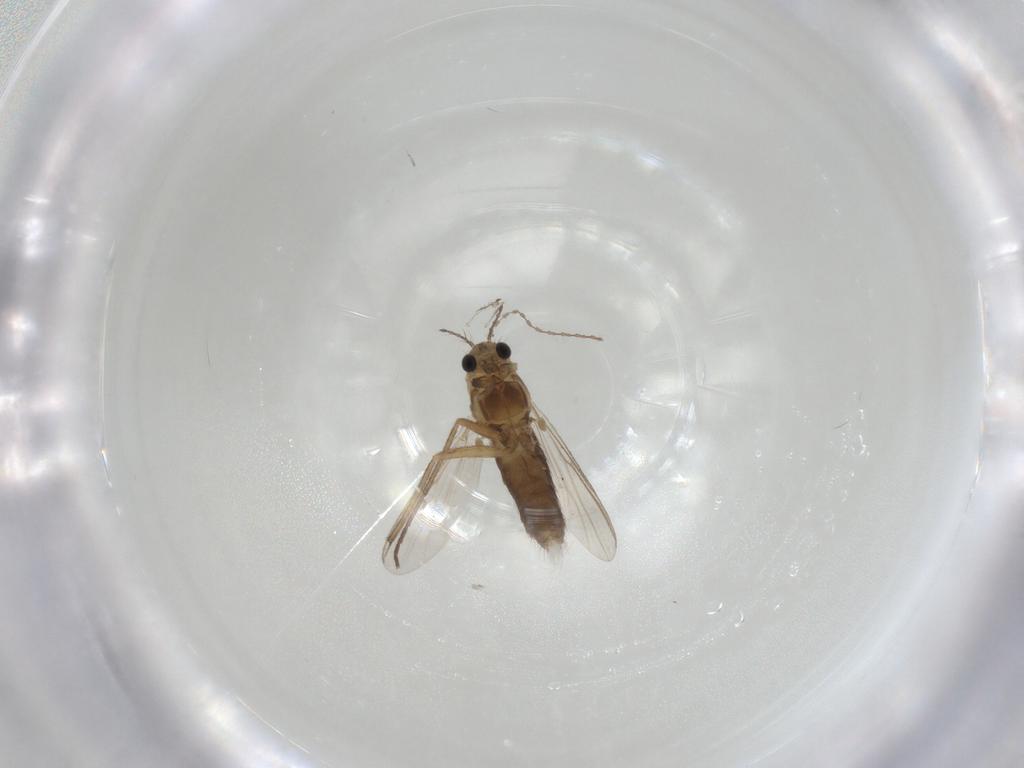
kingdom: Animalia
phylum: Arthropoda
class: Insecta
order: Diptera
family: Chironomidae
